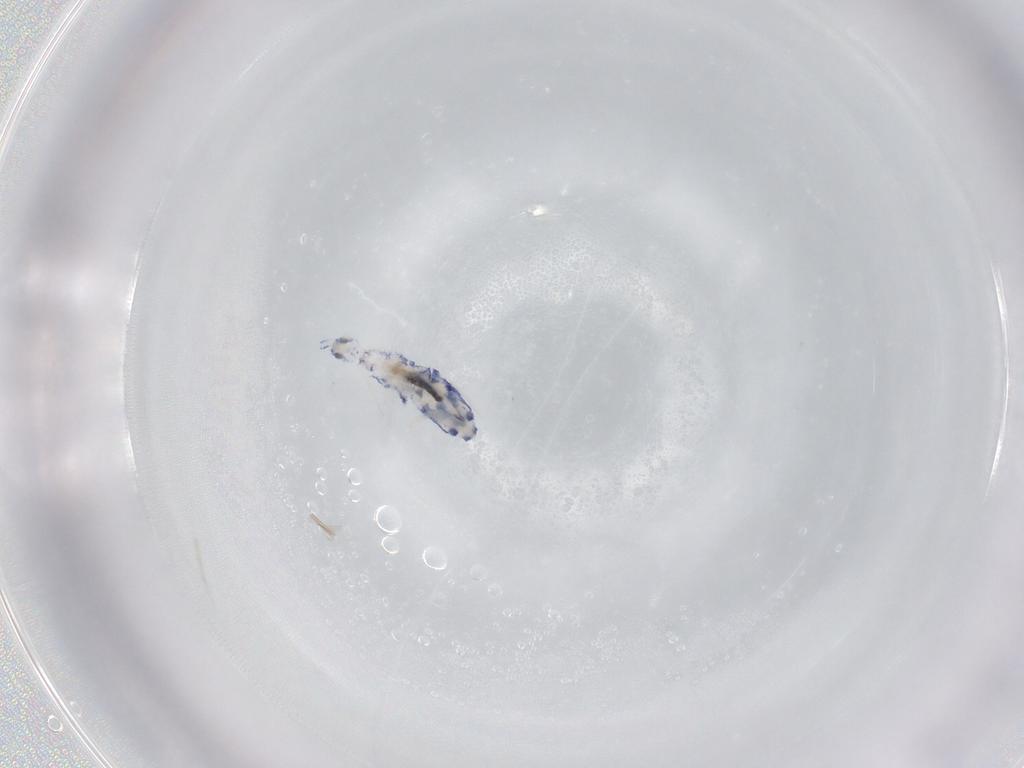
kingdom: Animalia
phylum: Arthropoda
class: Collembola
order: Entomobryomorpha
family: Entomobryidae
